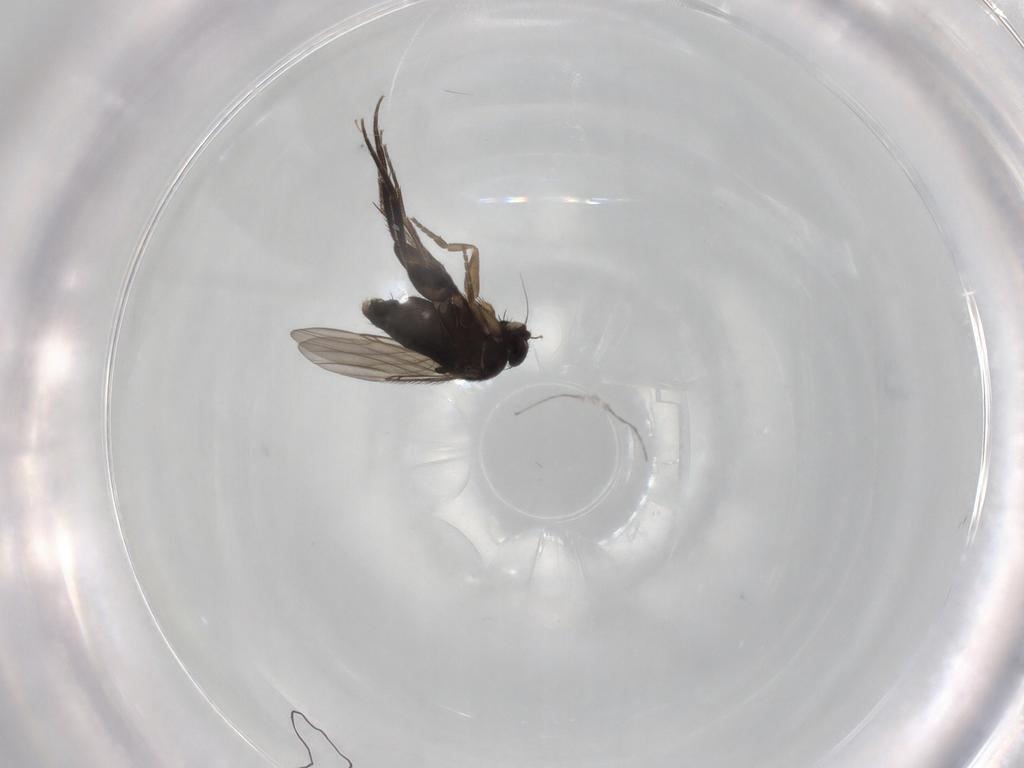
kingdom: Animalia
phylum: Arthropoda
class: Insecta
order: Diptera
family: Phoridae
